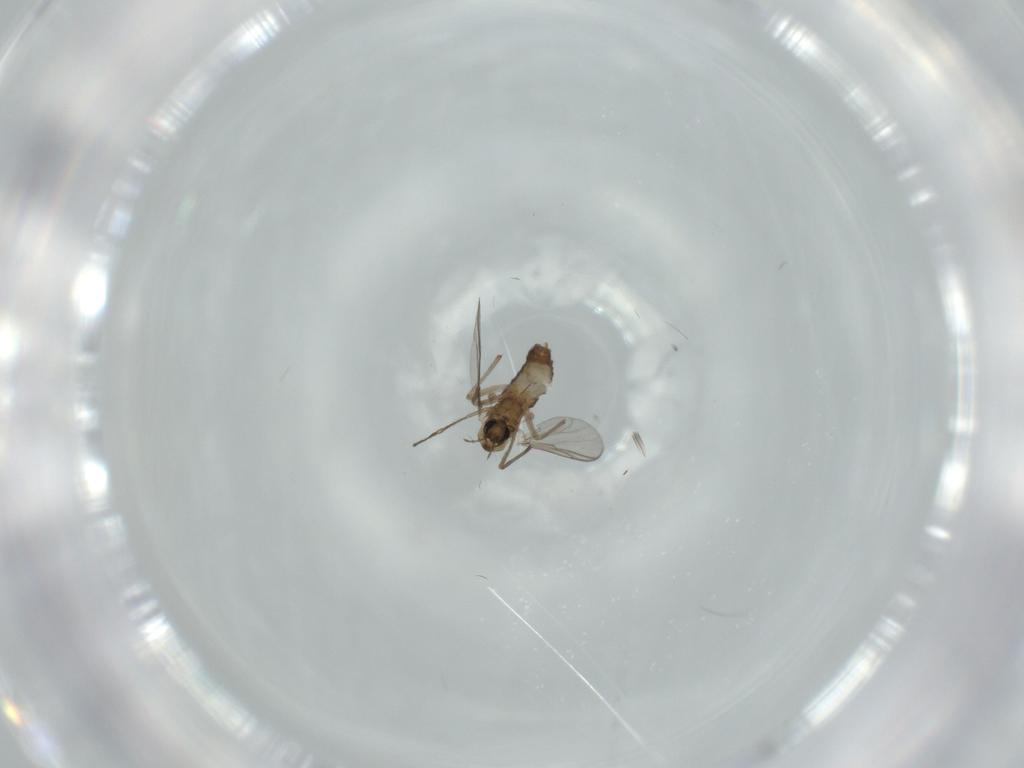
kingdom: Animalia
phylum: Arthropoda
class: Insecta
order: Diptera
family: Chironomidae
